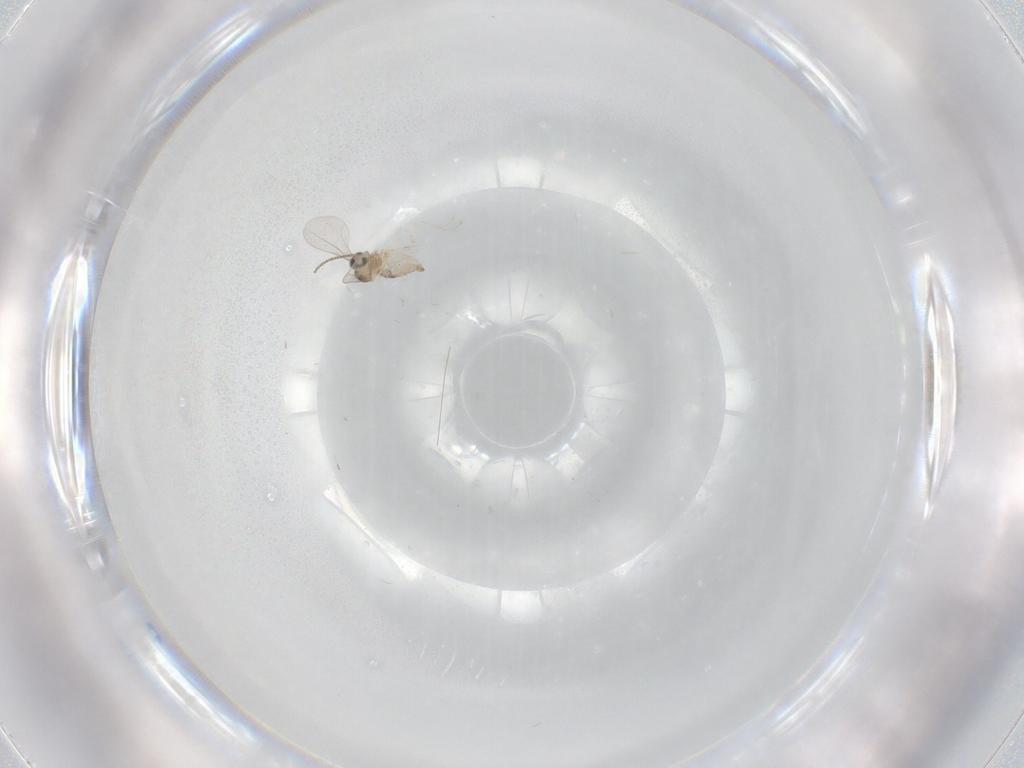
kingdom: Animalia
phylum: Arthropoda
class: Insecta
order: Diptera
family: Cecidomyiidae
